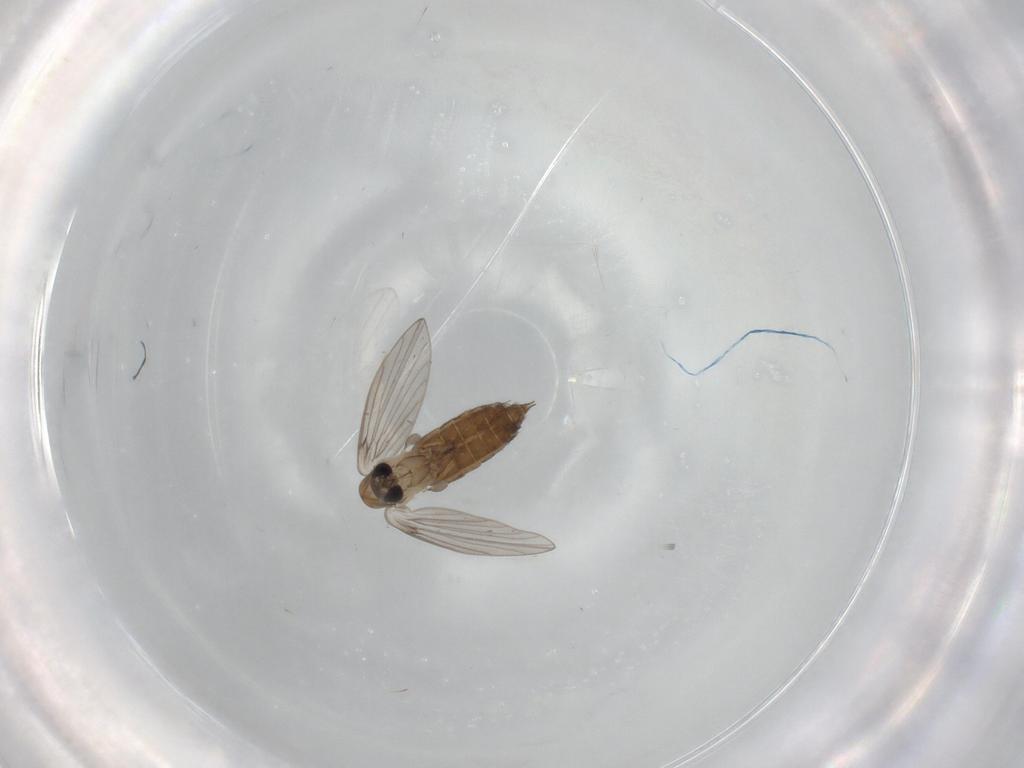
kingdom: Animalia
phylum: Arthropoda
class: Insecta
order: Diptera
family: Psychodidae
